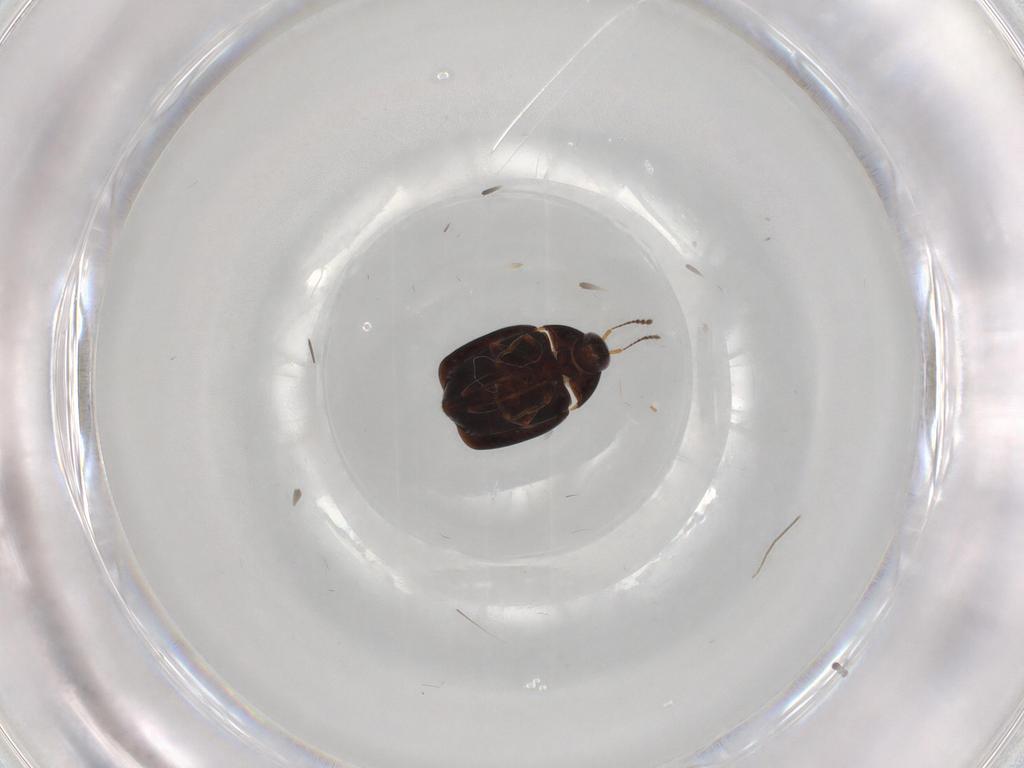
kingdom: Animalia
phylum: Arthropoda
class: Insecta
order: Coleoptera
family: Staphylinidae
